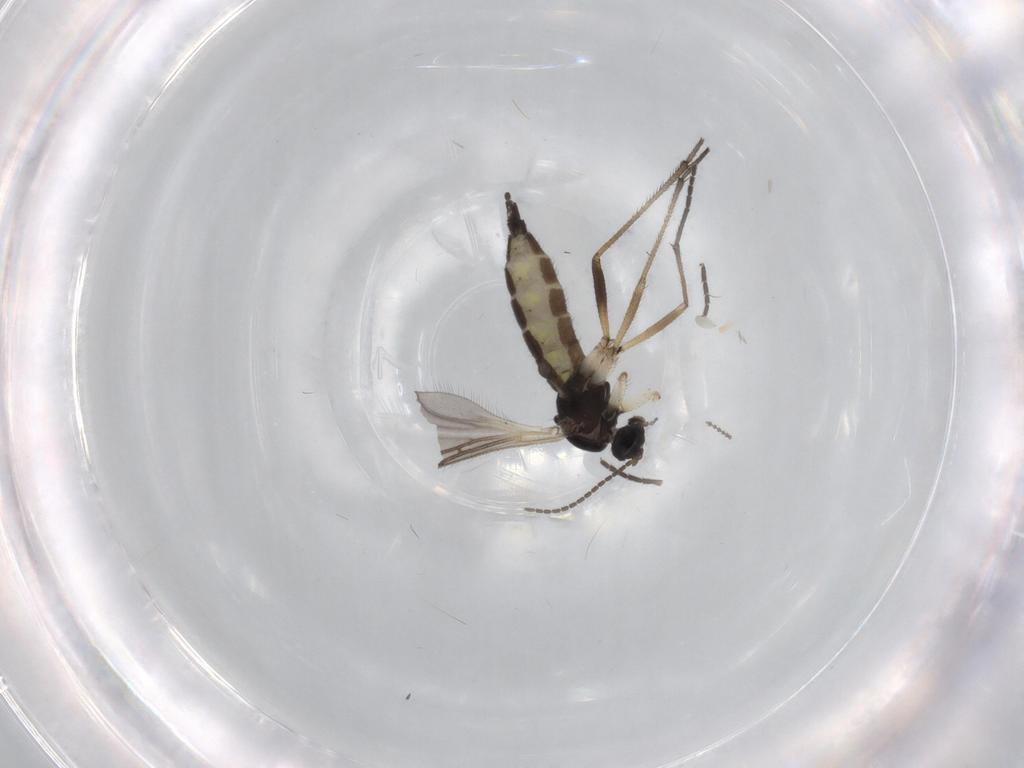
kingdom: Animalia
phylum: Arthropoda
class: Insecta
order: Diptera
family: Sciaridae
